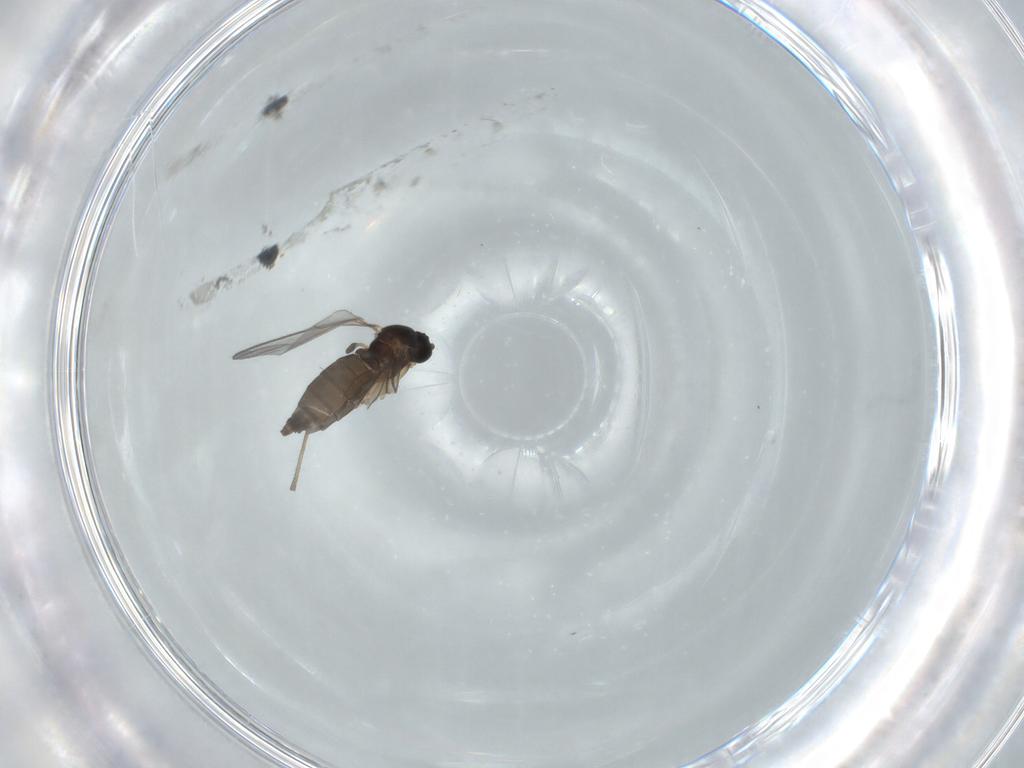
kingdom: Animalia
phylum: Arthropoda
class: Insecta
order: Diptera
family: Sciaridae
